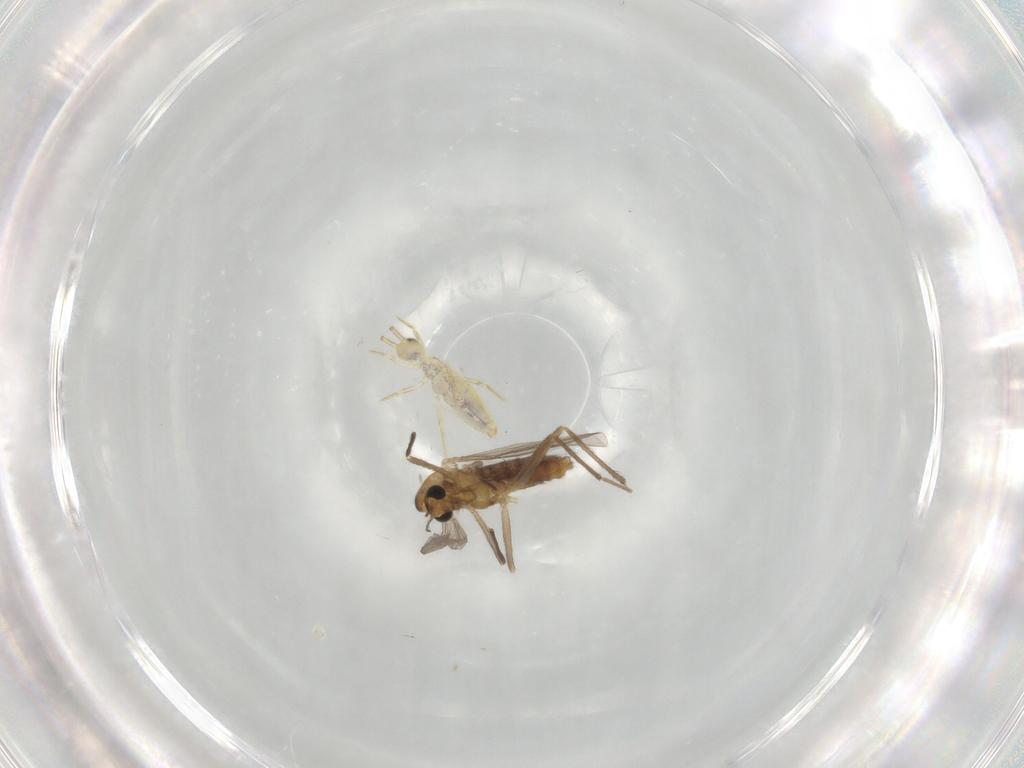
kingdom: Animalia
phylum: Arthropoda
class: Insecta
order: Diptera
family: Chironomidae
